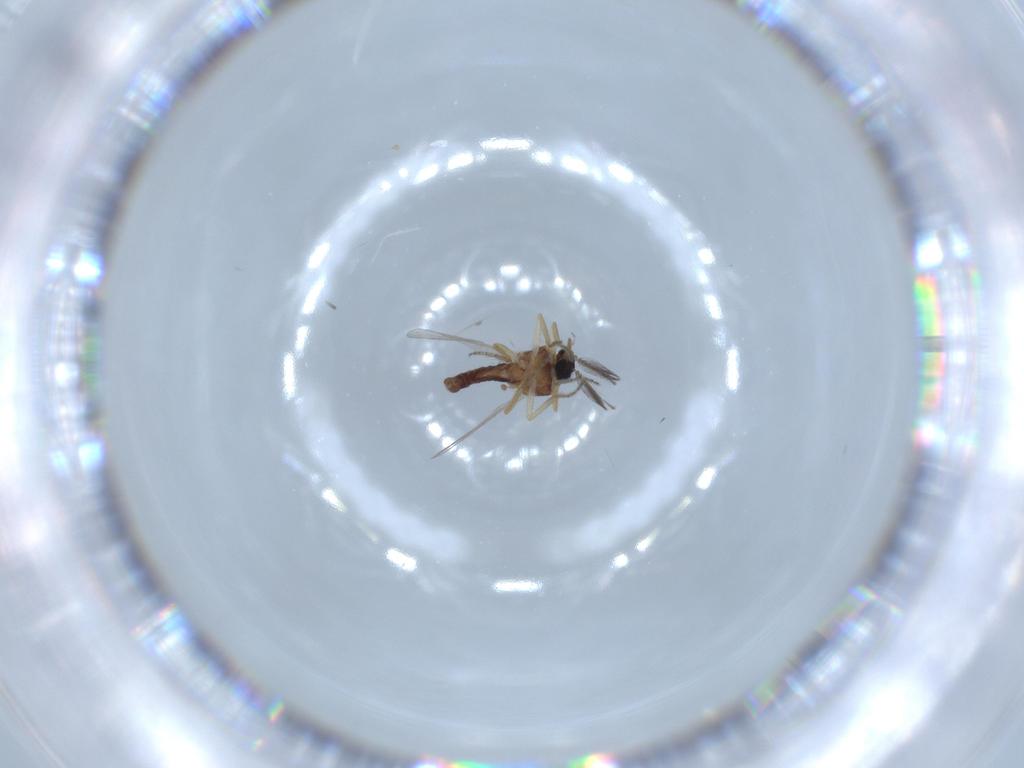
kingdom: Animalia
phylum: Arthropoda
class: Insecta
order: Diptera
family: Ceratopogonidae
